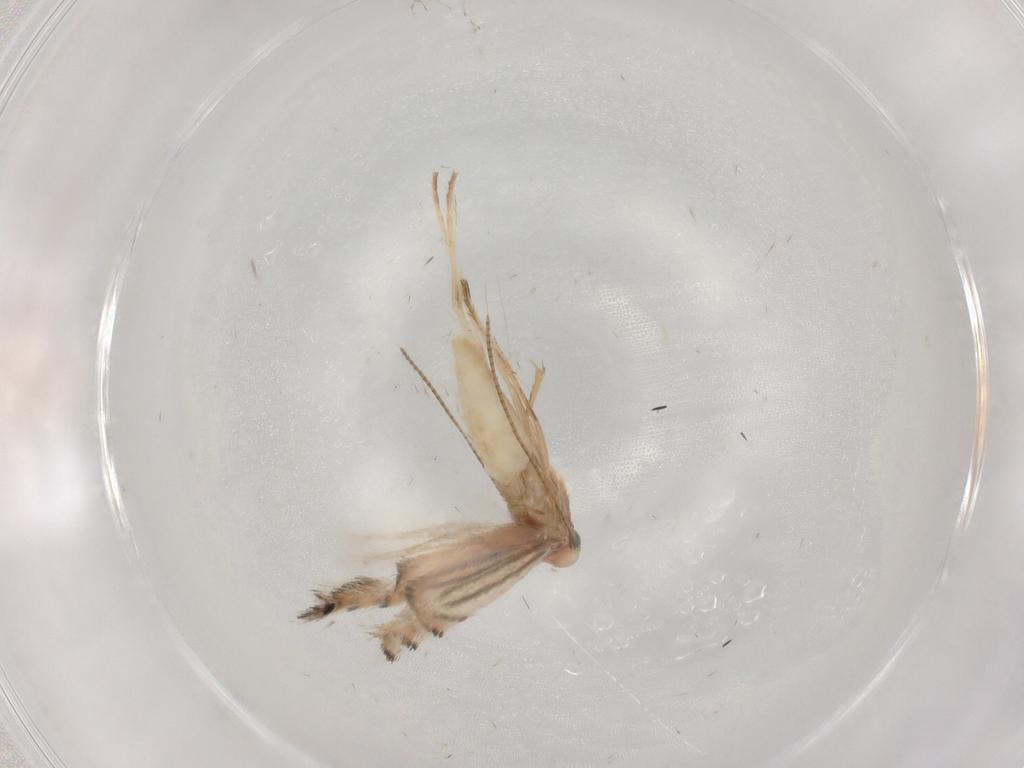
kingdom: Animalia
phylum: Arthropoda
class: Insecta
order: Lepidoptera
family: Gracillariidae
